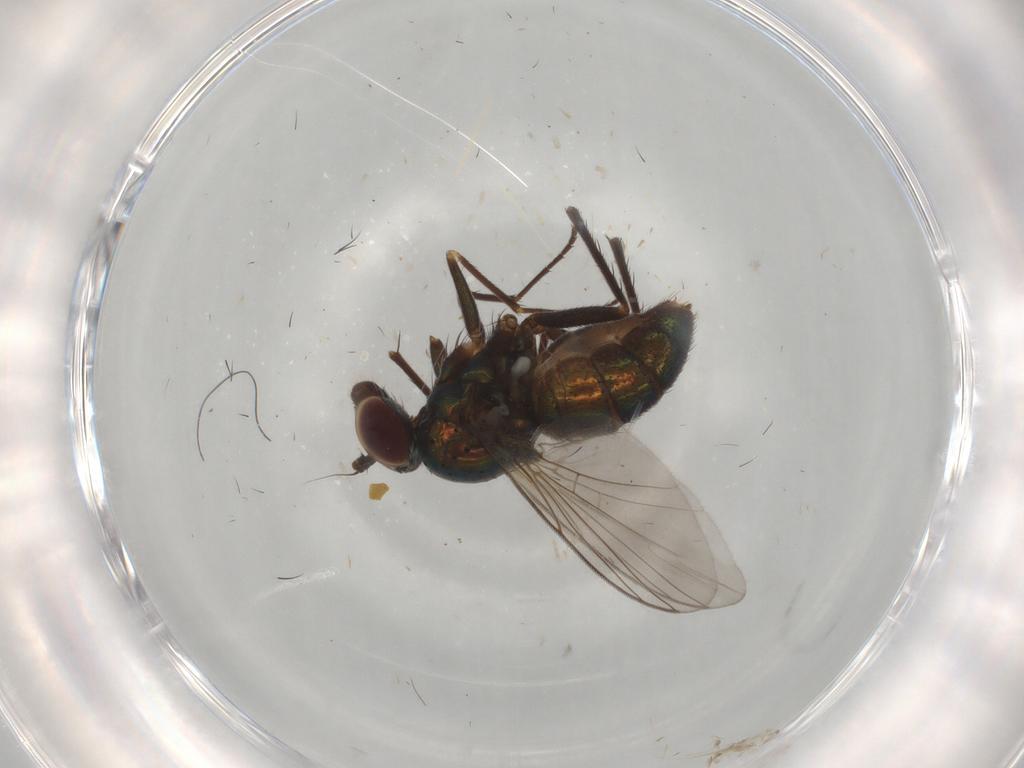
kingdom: Animalia
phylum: Arthropoda
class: Insecta
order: Diptera
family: Dolichopodidae
